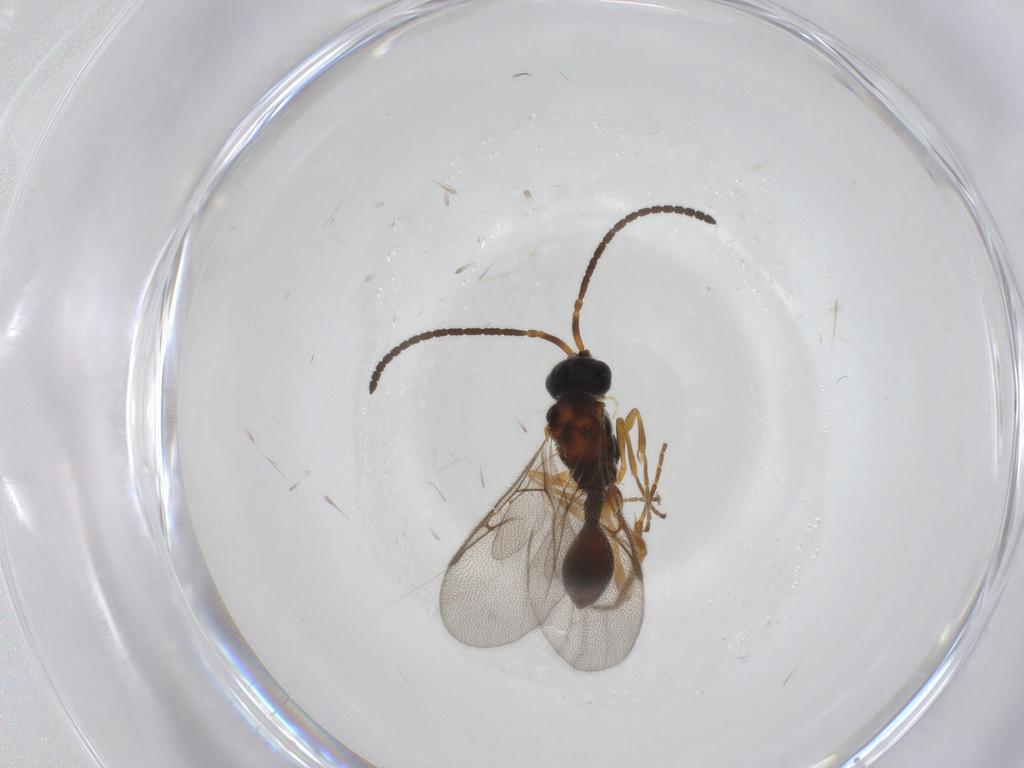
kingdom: Animalia
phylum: Arthropoda
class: Insecta
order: Hymenoptera
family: Diapriidae
